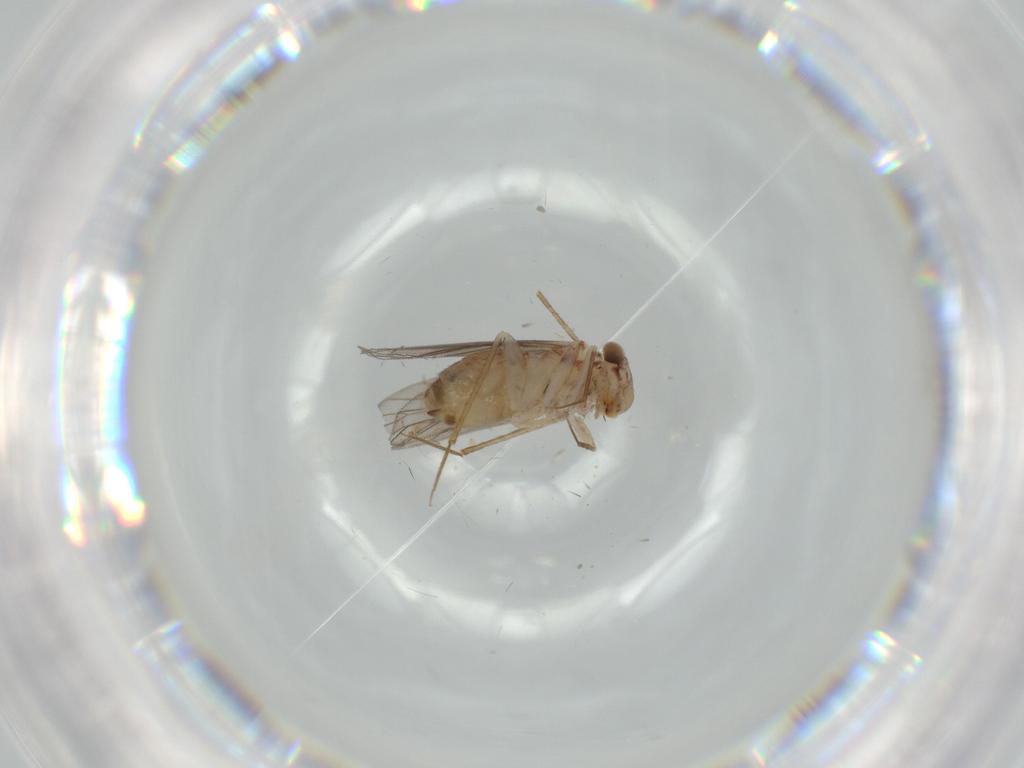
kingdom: Animalia
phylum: Arthropoda
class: Insecta
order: Psocodea
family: Lepidopsocidae
